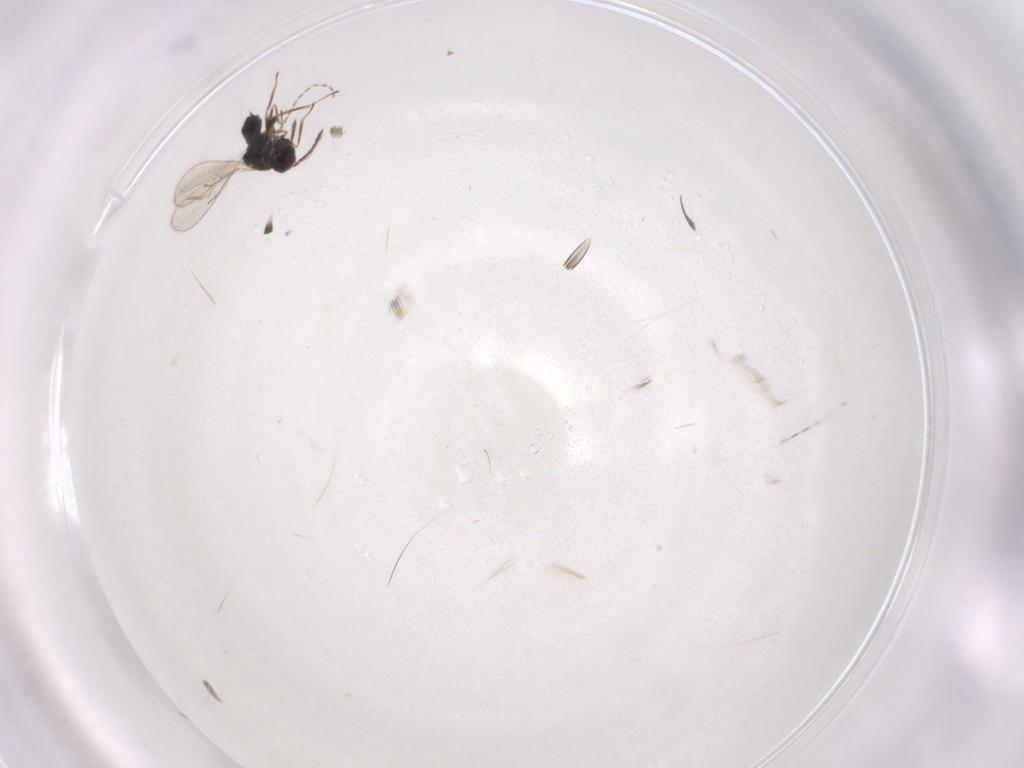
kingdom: Animalia
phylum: Arthropoda
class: Insecta
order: Hymenoptera
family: Eulophidae
